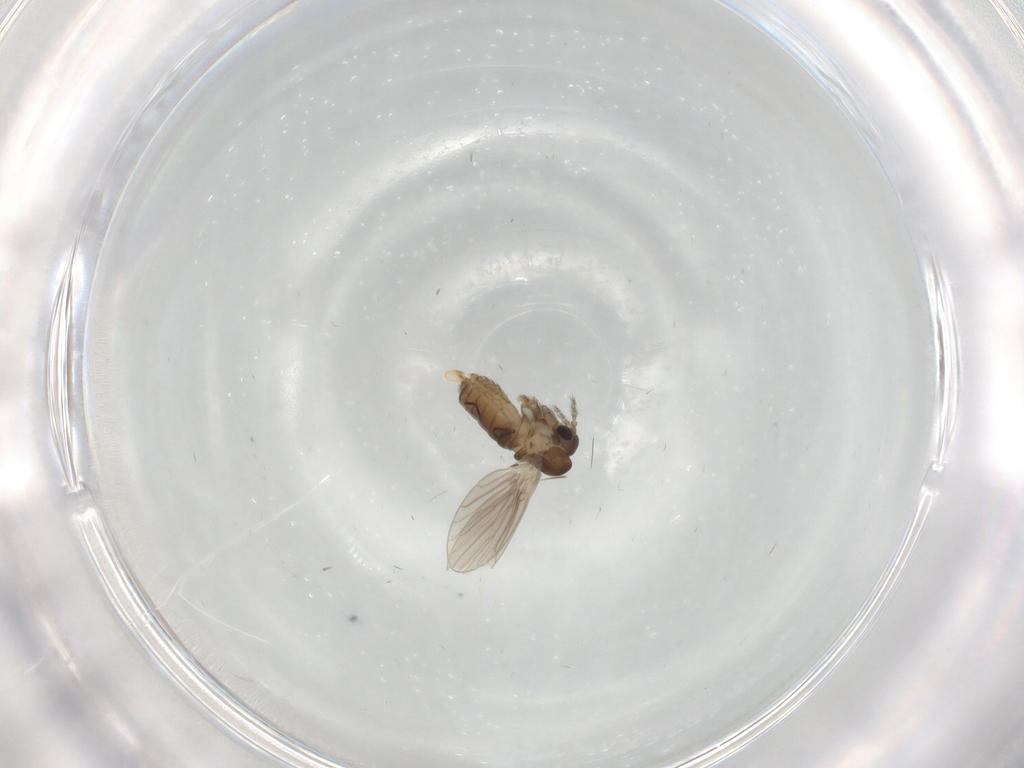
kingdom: Animalia
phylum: Arthropoda
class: Insecta
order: Diptera
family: Psychodidae
